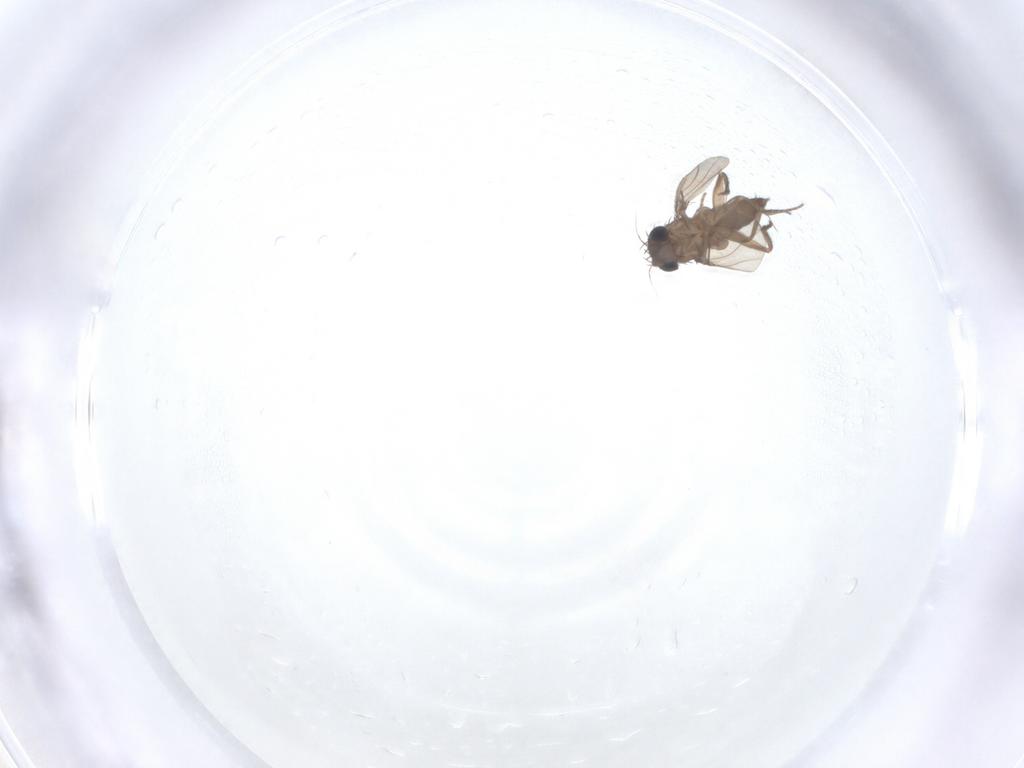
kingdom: Animalia
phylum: Arthropoda
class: Insecta
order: Diptera
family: Phoridae
